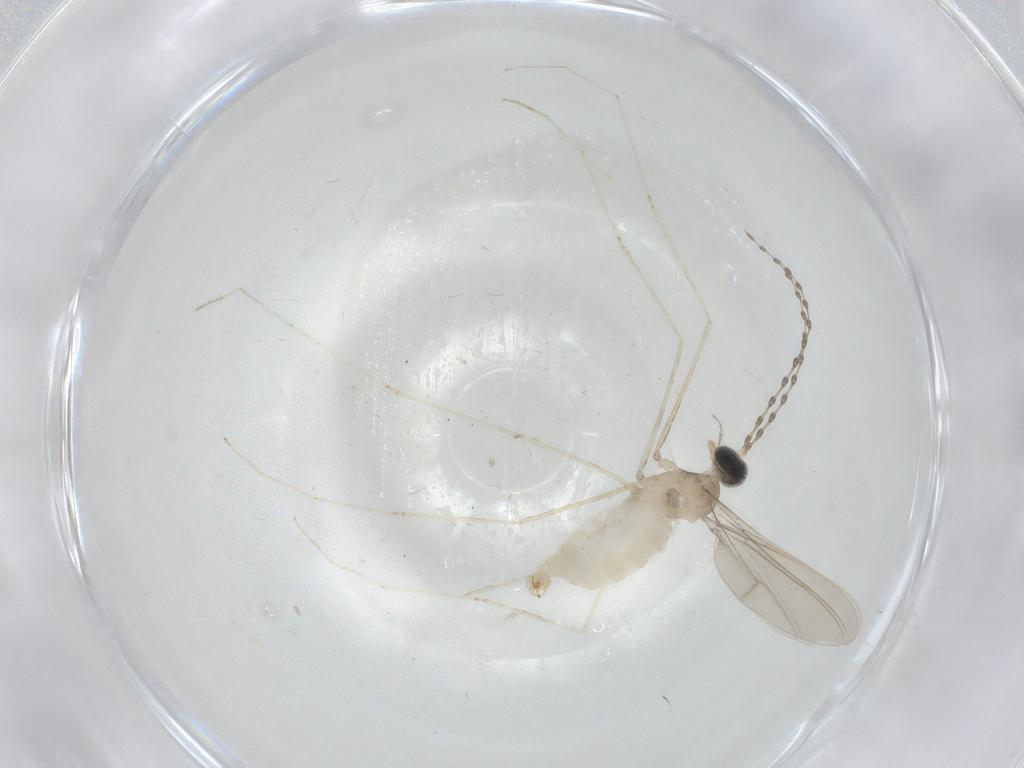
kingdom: Animalia
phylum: Arthropoda
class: Insecta
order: Diptera
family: Cecidomyiidae
